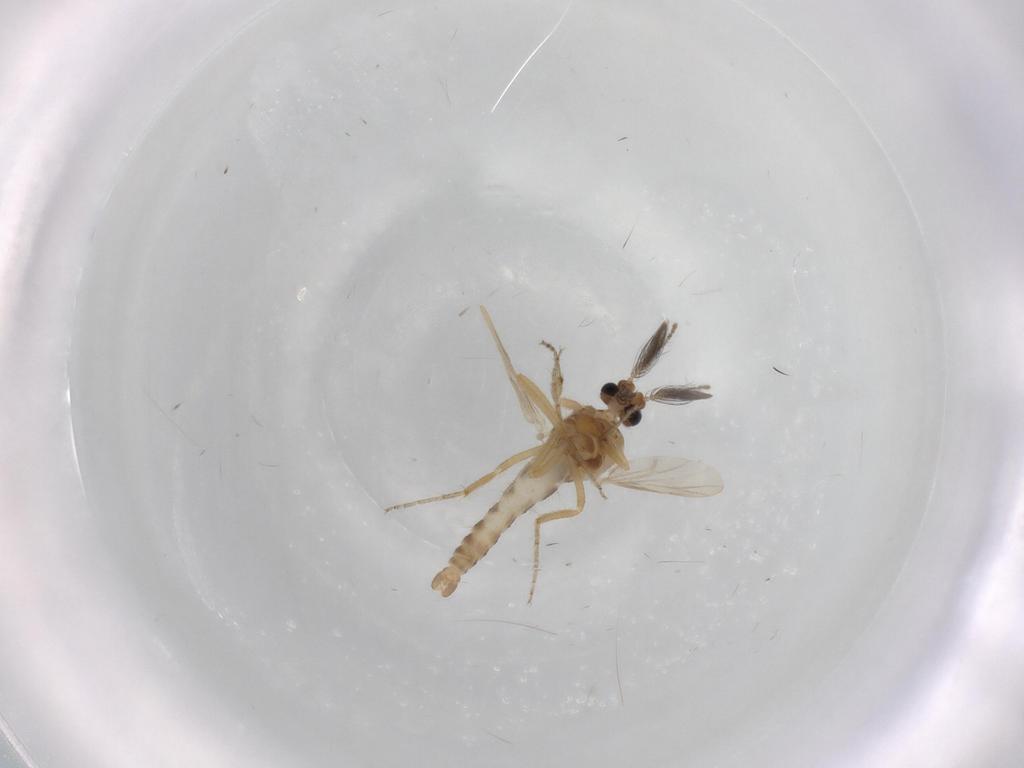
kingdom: Animalia
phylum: Arthropoda
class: Insecta
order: Diptera
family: Ceratopogonidae
